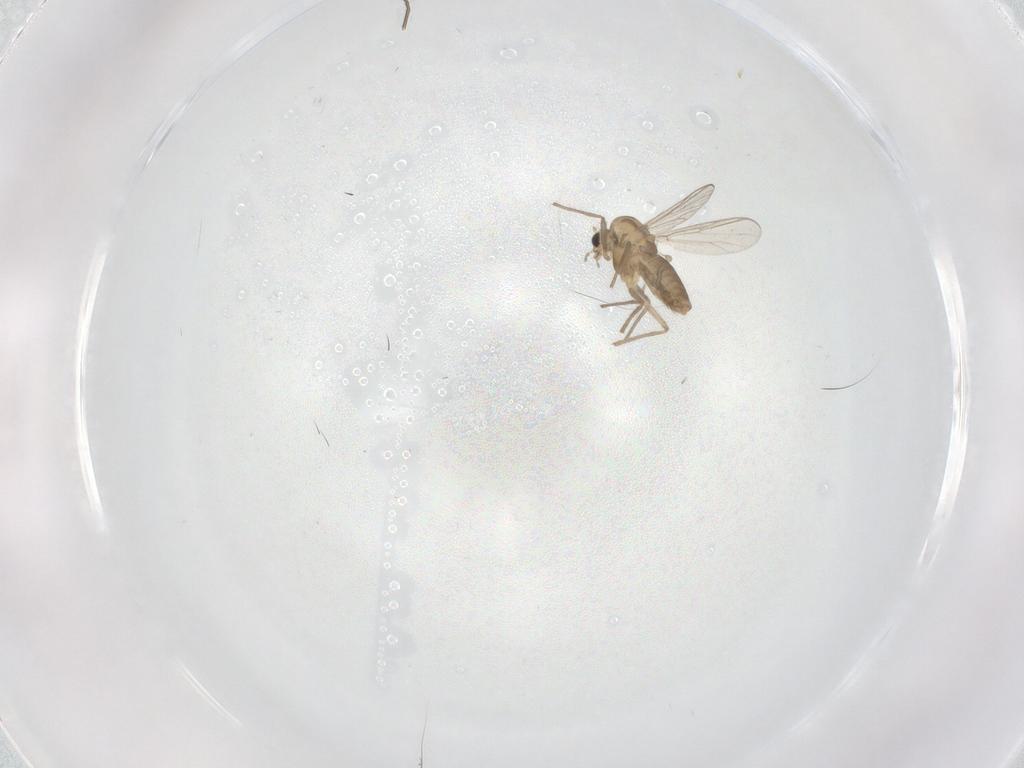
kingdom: Animalia
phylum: Arthropoda
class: Insecta
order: Diptera
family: Chironomidae
